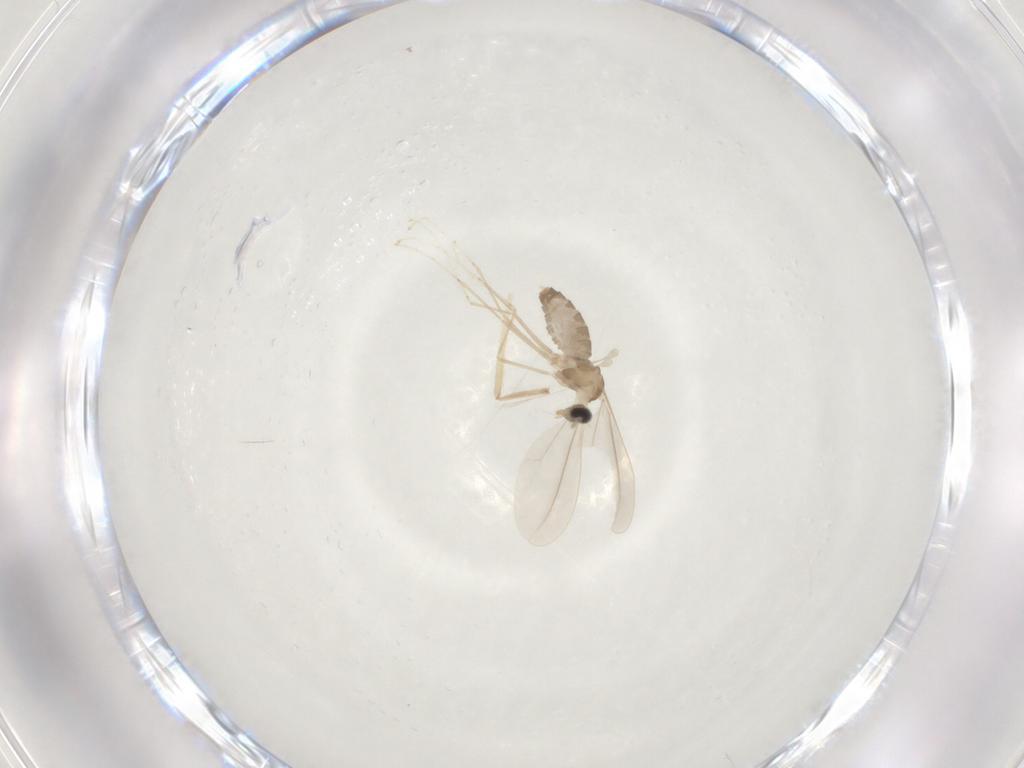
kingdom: Animalia
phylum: Arthropoda
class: Insecta
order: Diptera
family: Cecidomyiidae
